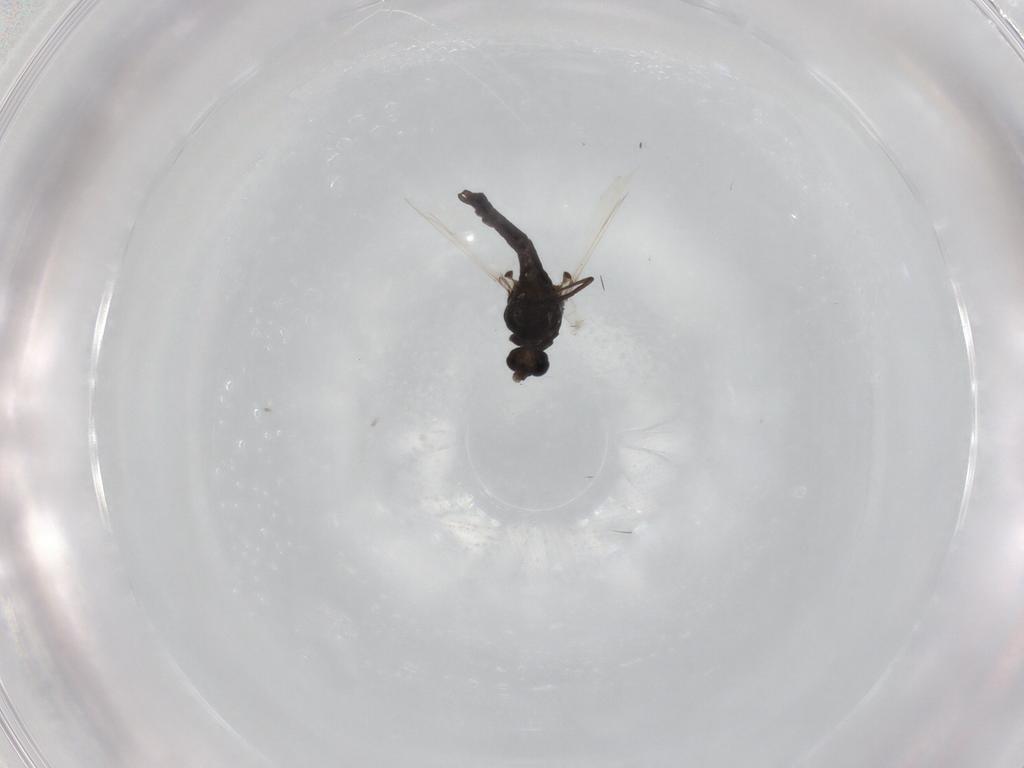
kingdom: Animalia
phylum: Arthropoda
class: Insecta
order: Diptera
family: Chironomidae
